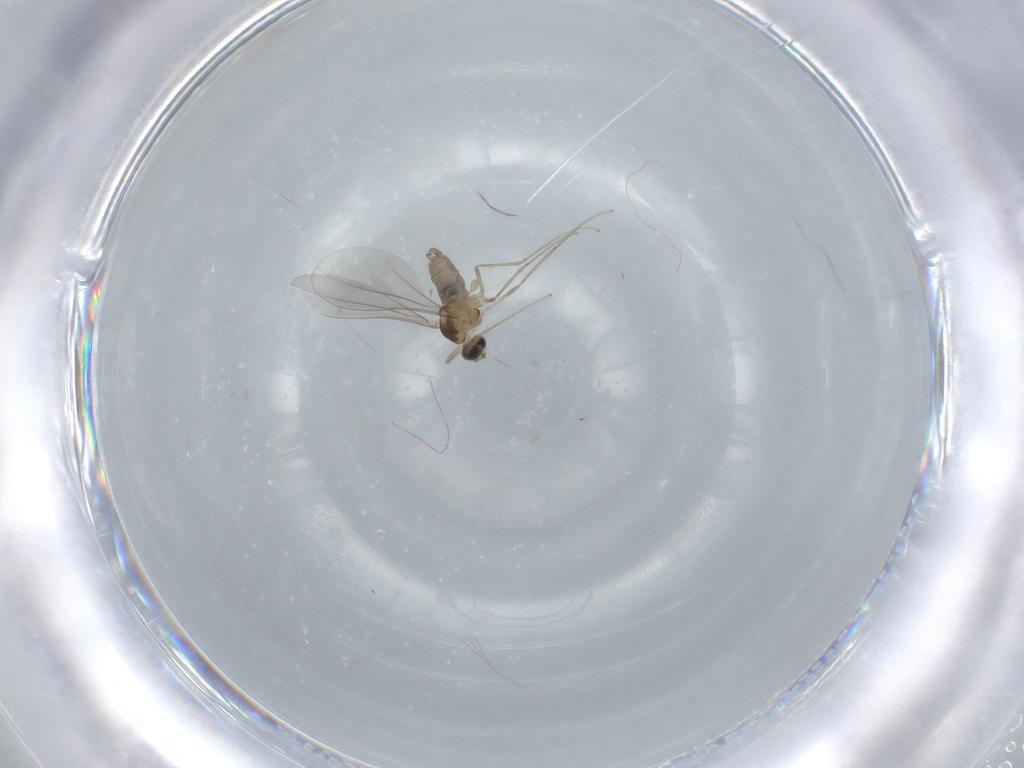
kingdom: Animalia
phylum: Arthropoda
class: Insecta
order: Diptera
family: Cecidomyiidae
